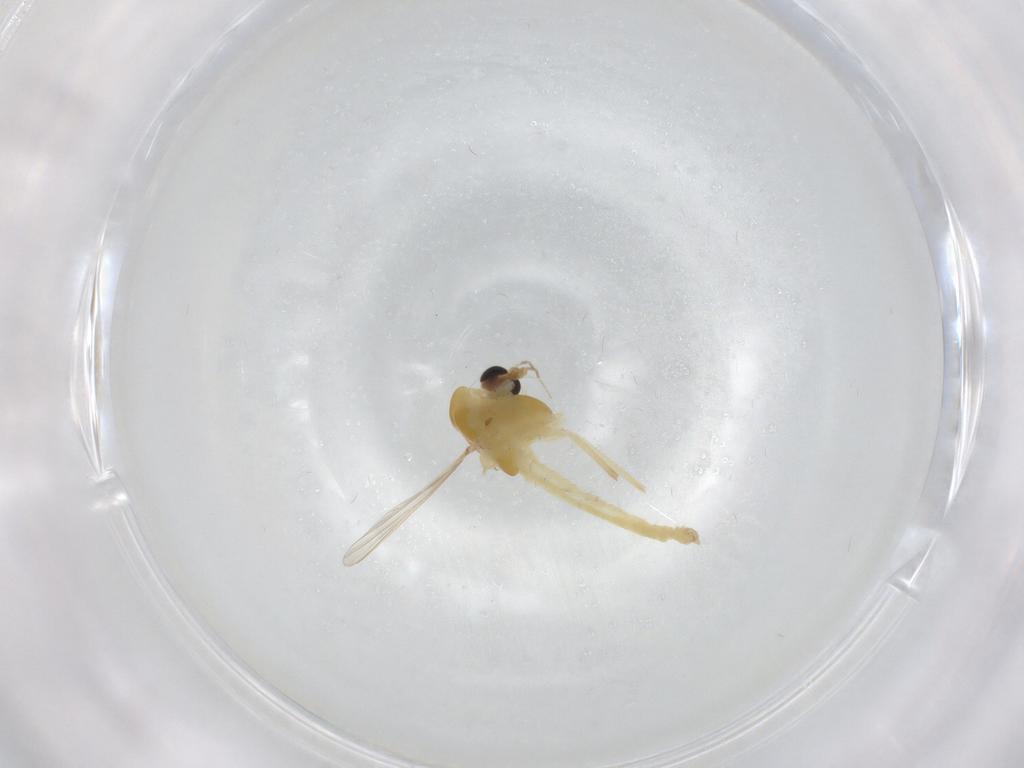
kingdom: Animalia
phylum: Arthropoda
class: Insecta
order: Diptera
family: Chironomidae
